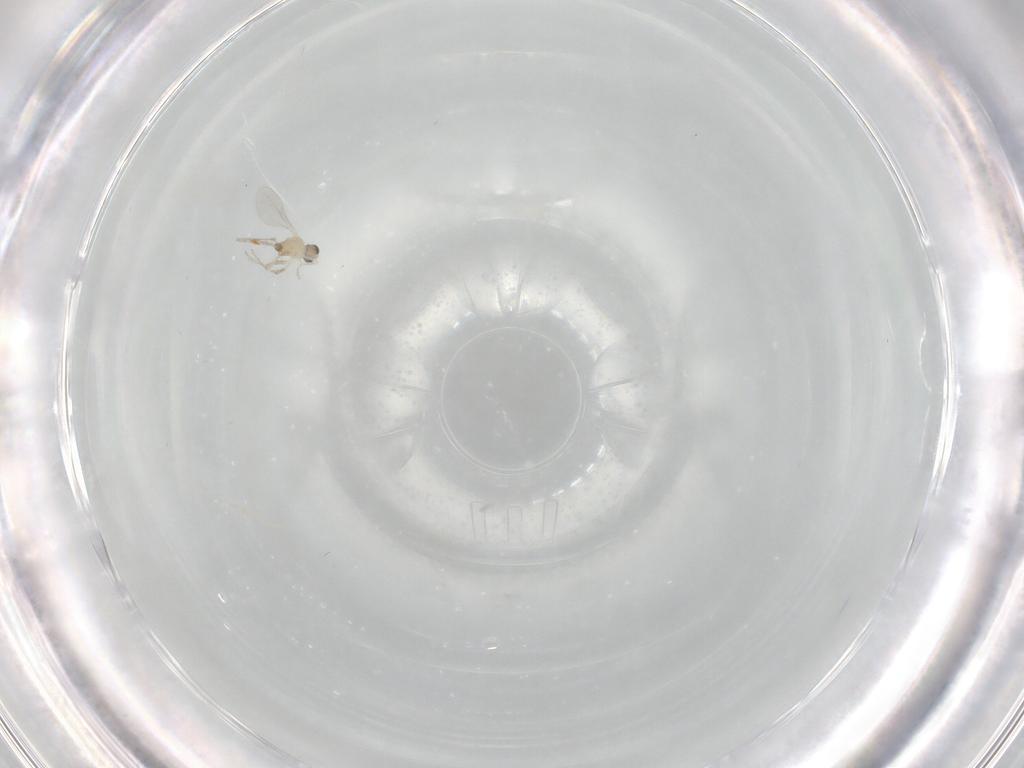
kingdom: Animalia
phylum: Arthropoda
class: Insecta
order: Diptera
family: Cecidomyiidae
